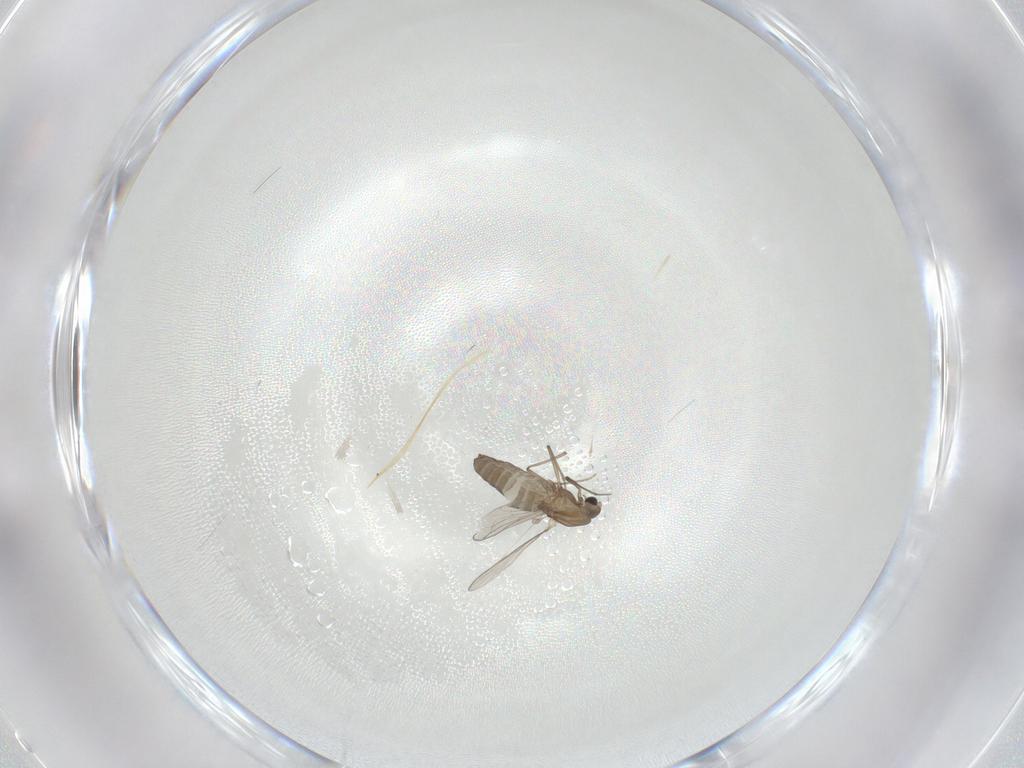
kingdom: Animalia
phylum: Arthropoda
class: Insecta
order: Diptera
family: Chironomidae
